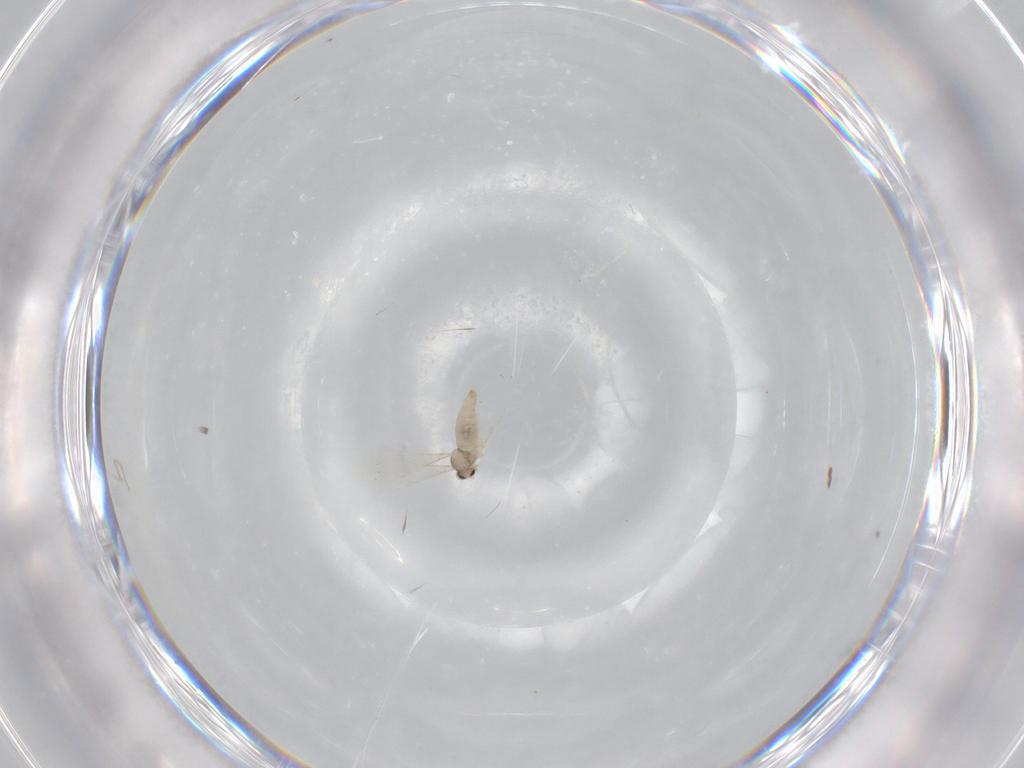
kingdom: Animalia
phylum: Arthropoda
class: Insecta
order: Diptera
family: Cecidomyiidae
